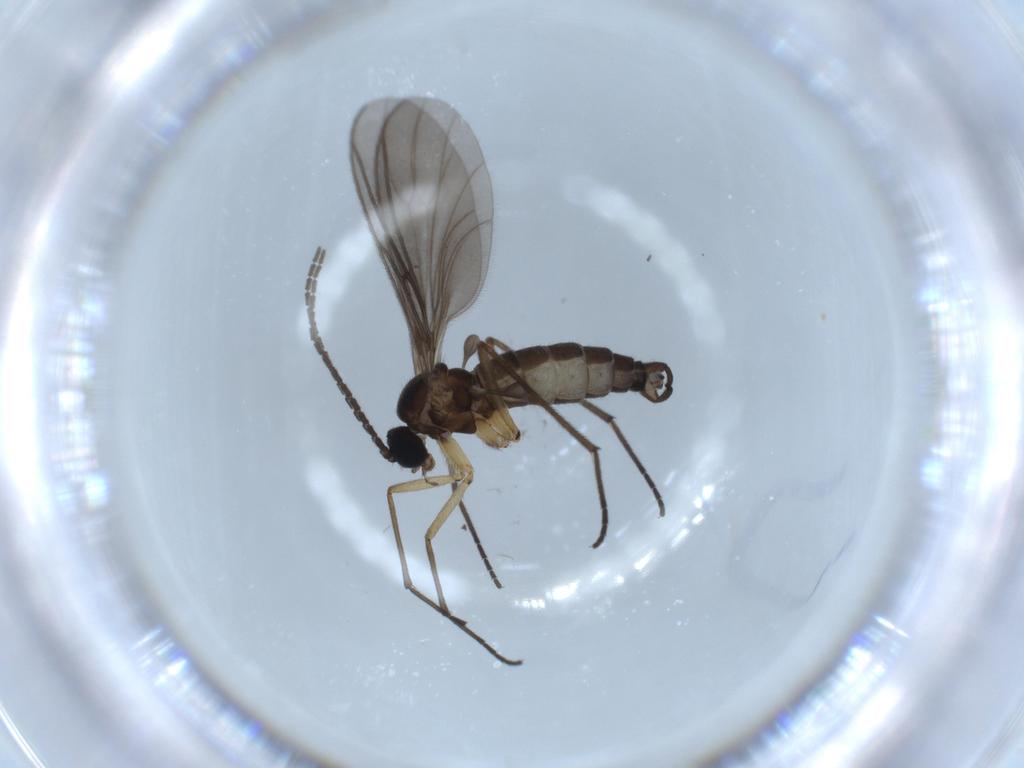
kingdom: Animalia
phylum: Arthropoda
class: Insecta
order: Diptera
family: Sciaridae
